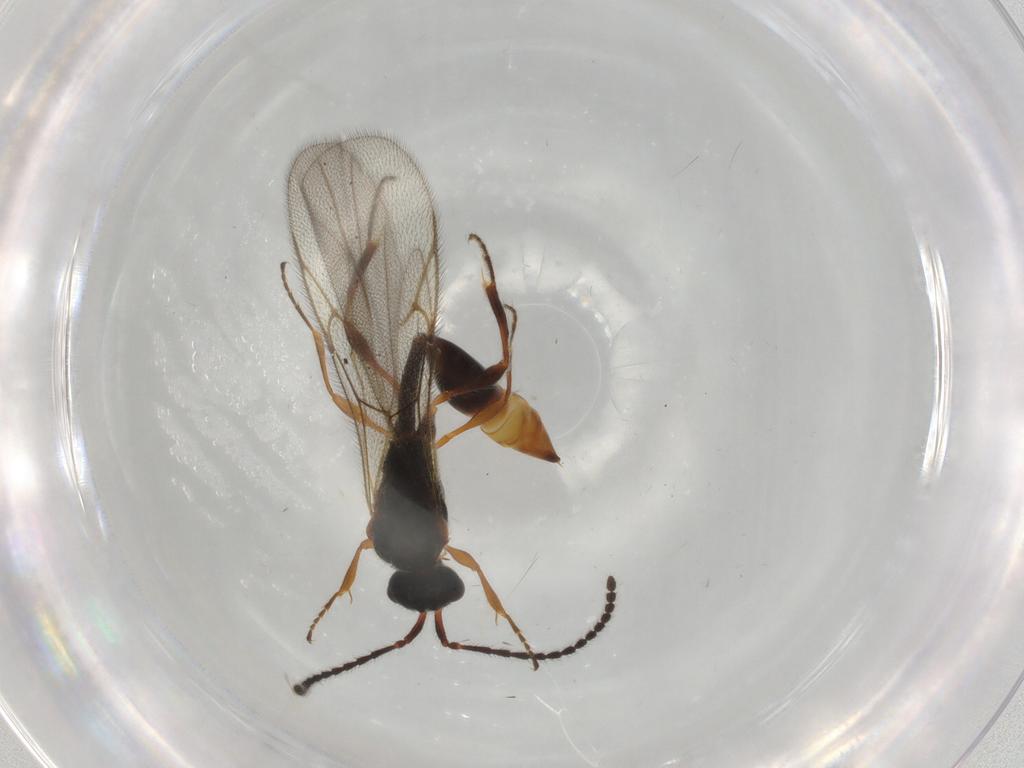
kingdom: Animalia
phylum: Arthropoda
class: Insecta
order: Hymenoptera
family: Diapriidae
